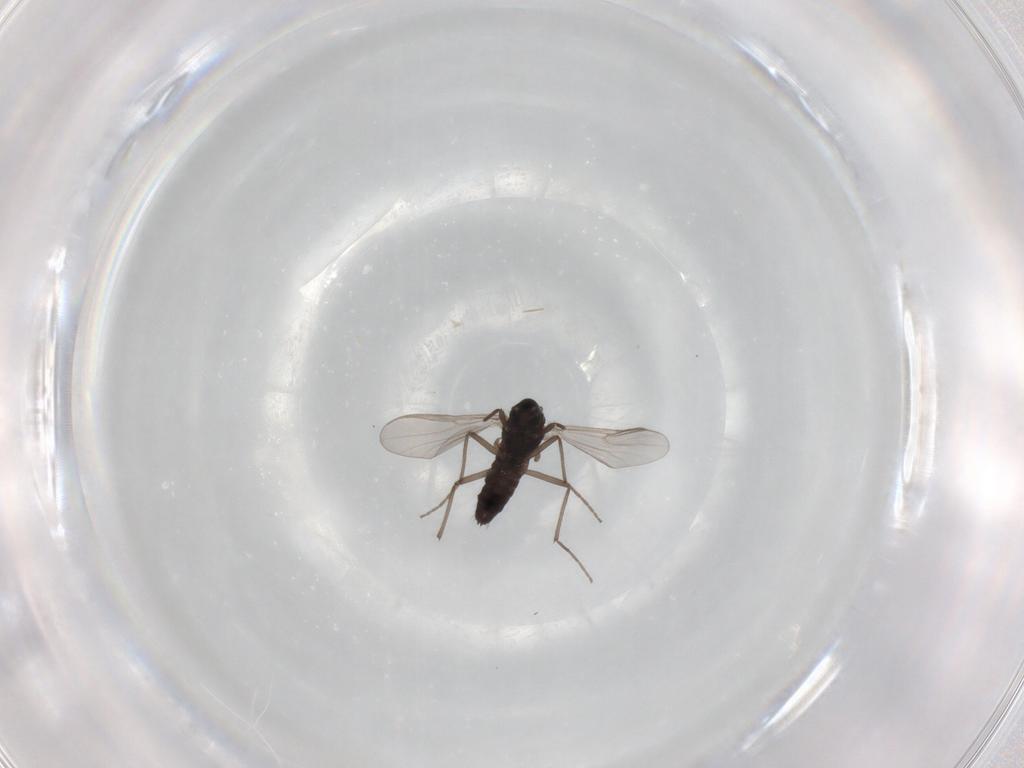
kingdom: Animalia
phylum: Arthropoda
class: Insecta
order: Diptera
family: Chironomidae
